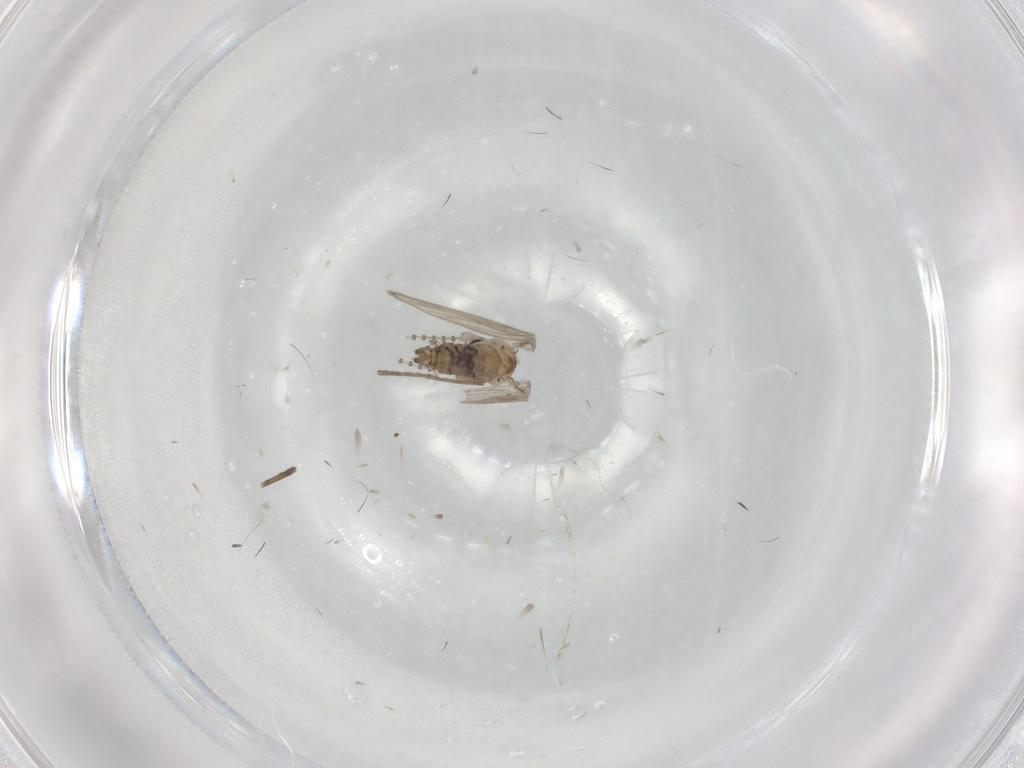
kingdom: Animalia
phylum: Arthropoda
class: Insecta
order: Diptera
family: Psychodidae
